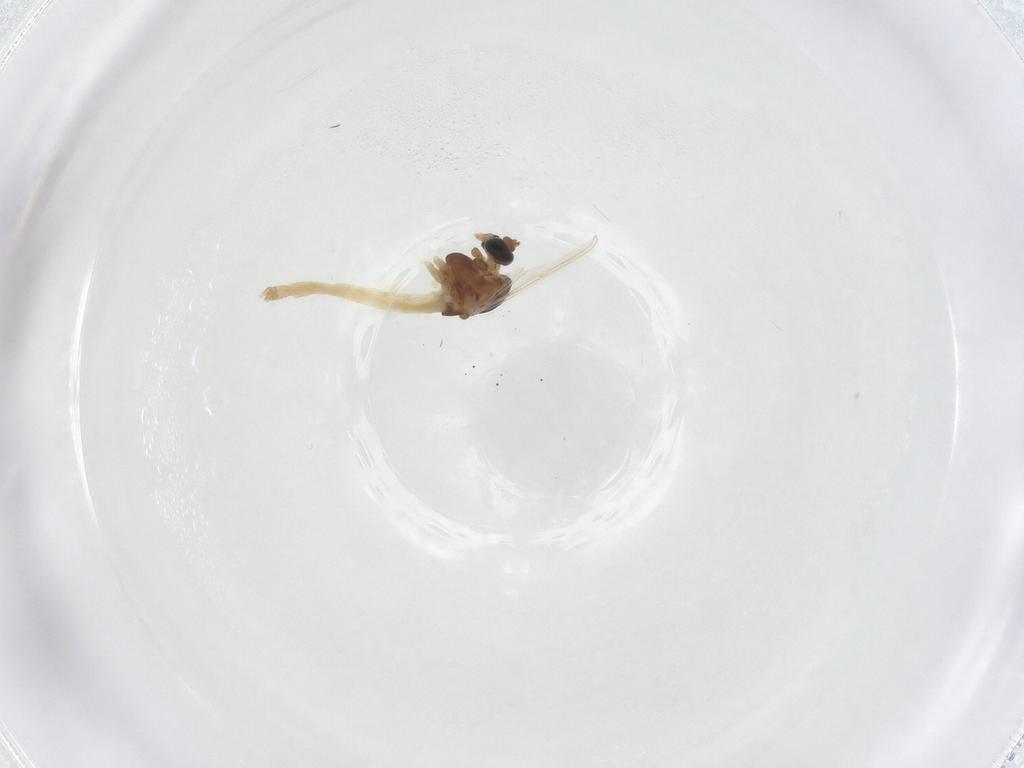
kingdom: Animalia
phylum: Arthropoda
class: Insecta
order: Diptera
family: Chironomidae
